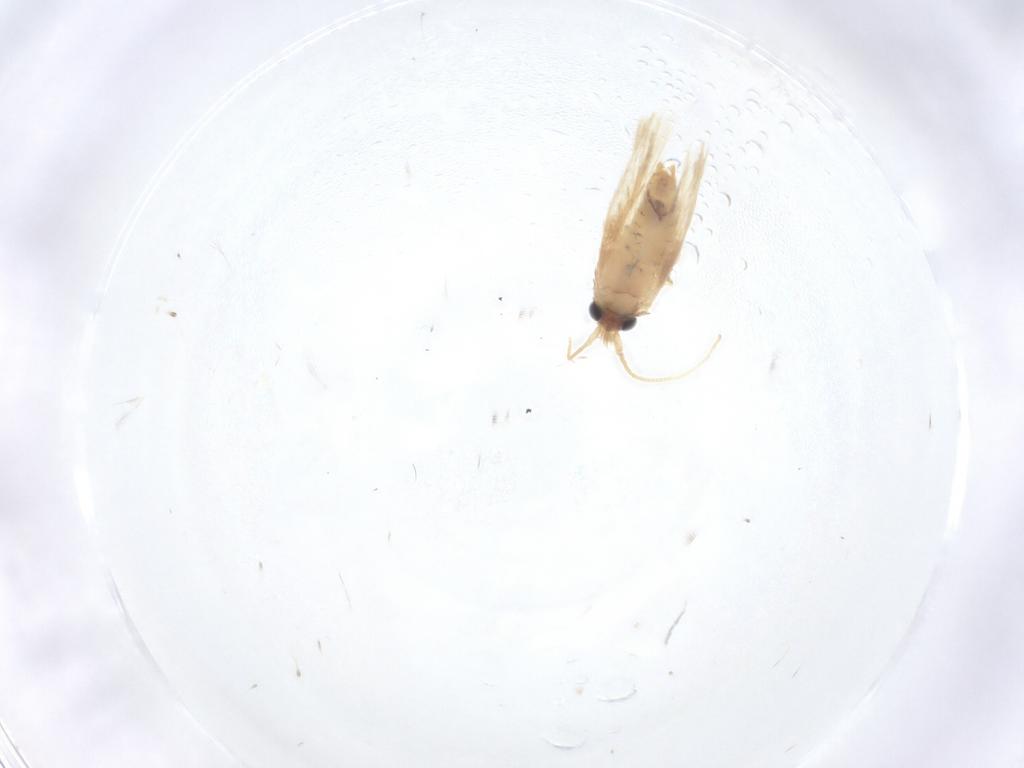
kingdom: Animalia
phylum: Arthropoda
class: Insecta
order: Lepidoptera
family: Nepticulidae
